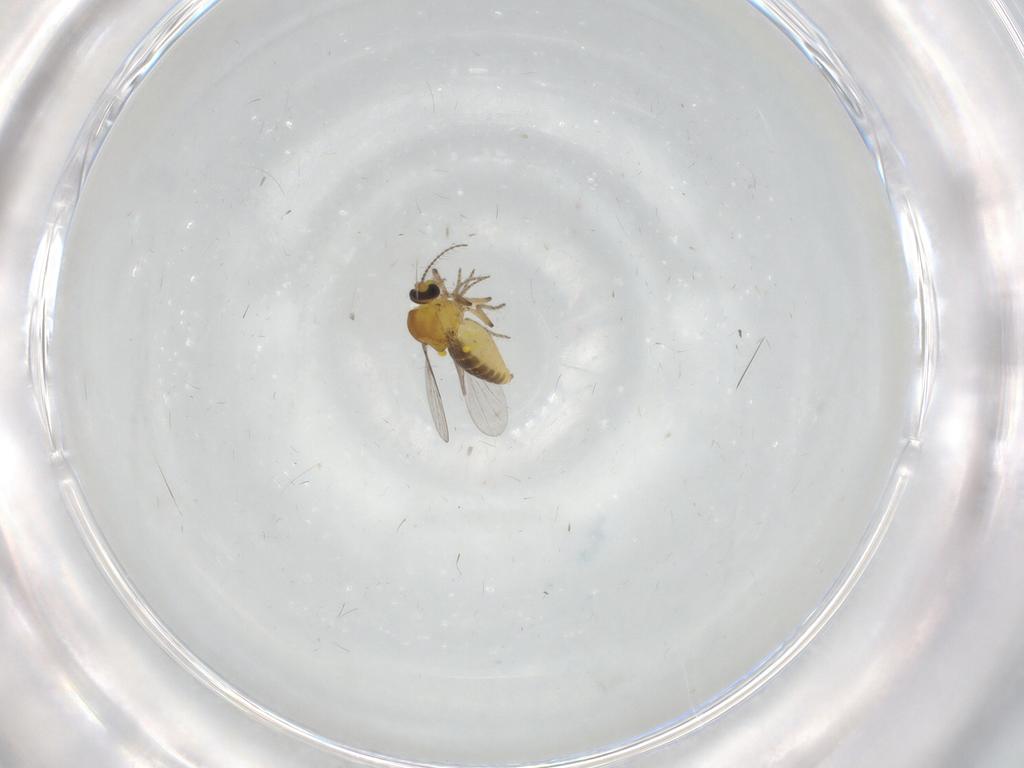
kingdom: Animalia
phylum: Arthropoda
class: Insecta
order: Diptera
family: Ceratopogonidae
